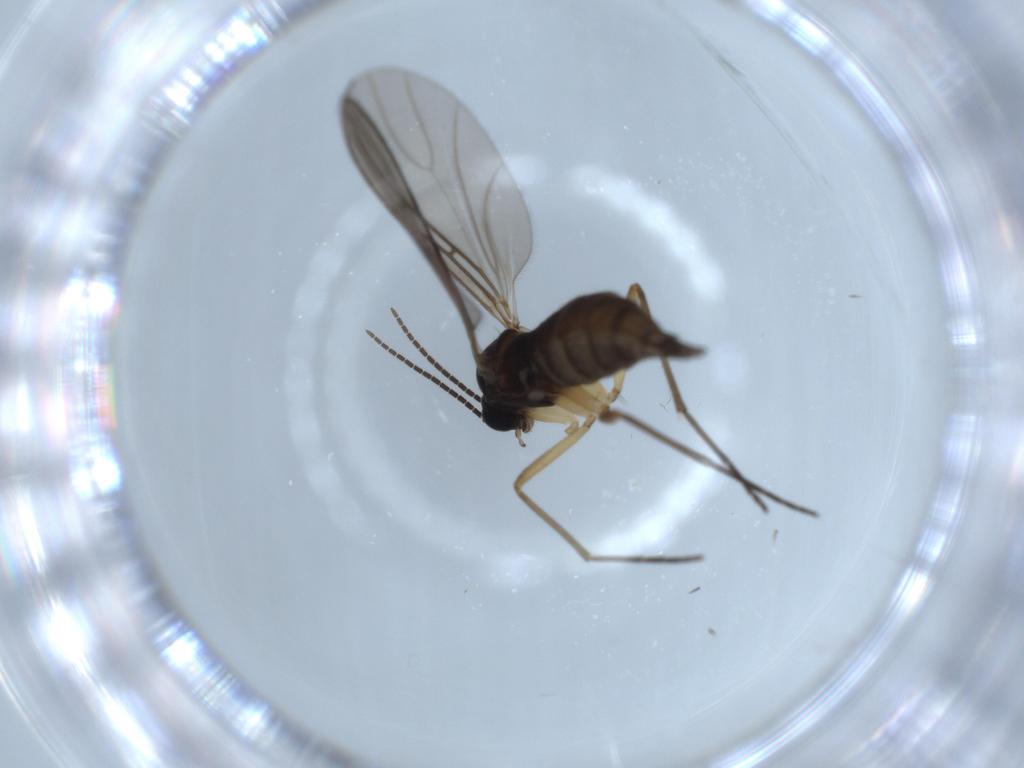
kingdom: Animalia
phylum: Arthropoda
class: Insecta
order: Diptera
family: Sciaridae
